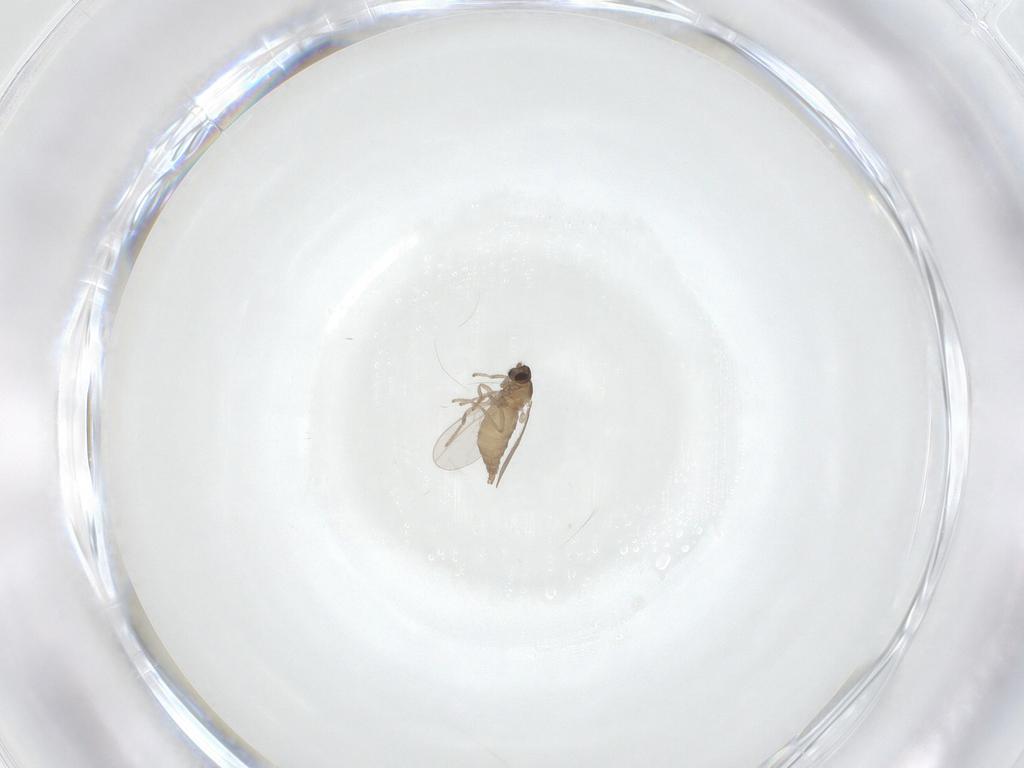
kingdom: Animalia
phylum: Arthropoda
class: Insecta
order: Diptera
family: Cecidomyiidae
